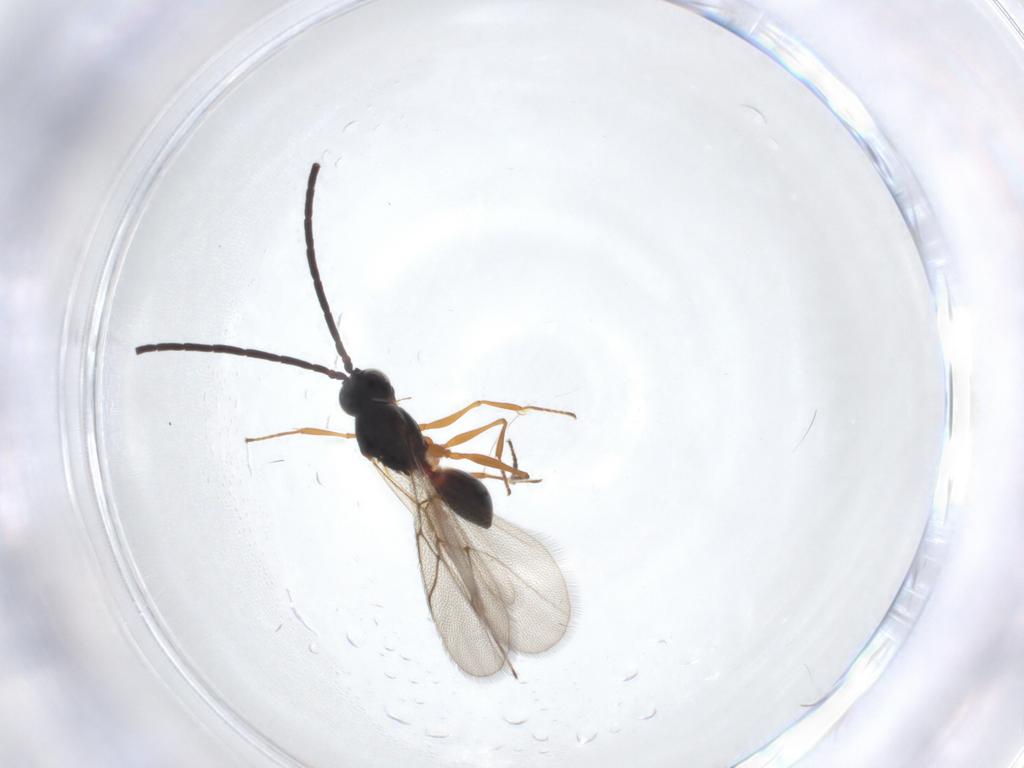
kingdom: Animalia
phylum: Arthropoda
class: Insecta
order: Hymenoptera
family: Figitidae
